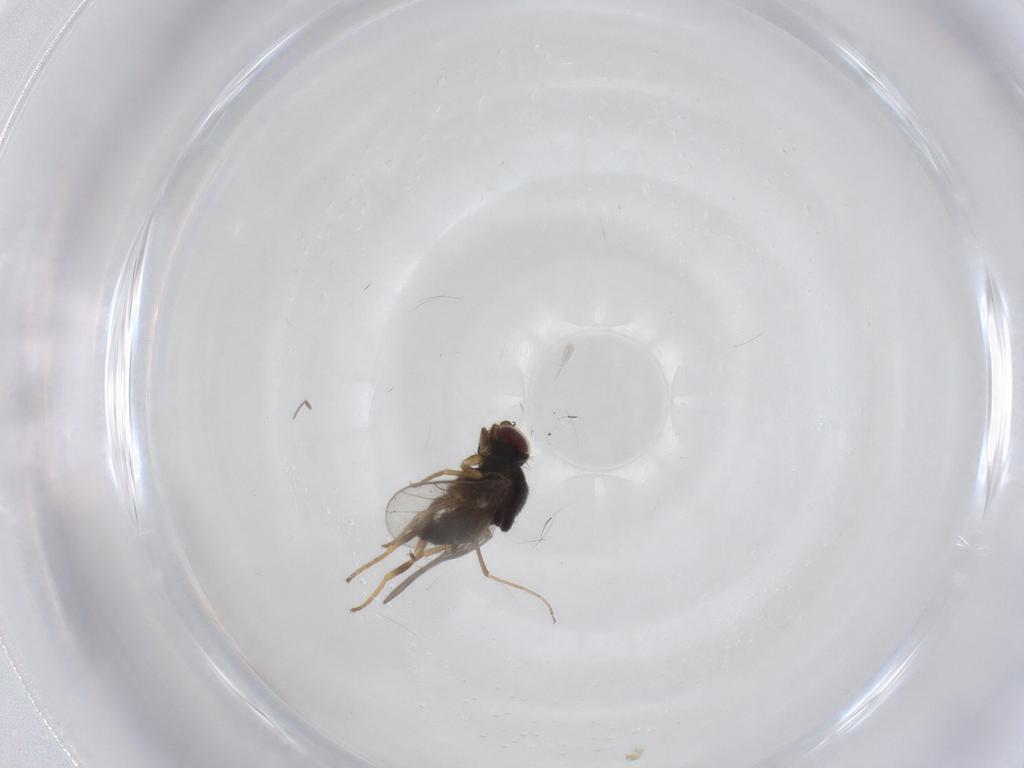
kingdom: Animalia
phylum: Arthropoda
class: Insecta
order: Diptera
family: Chloropidae
